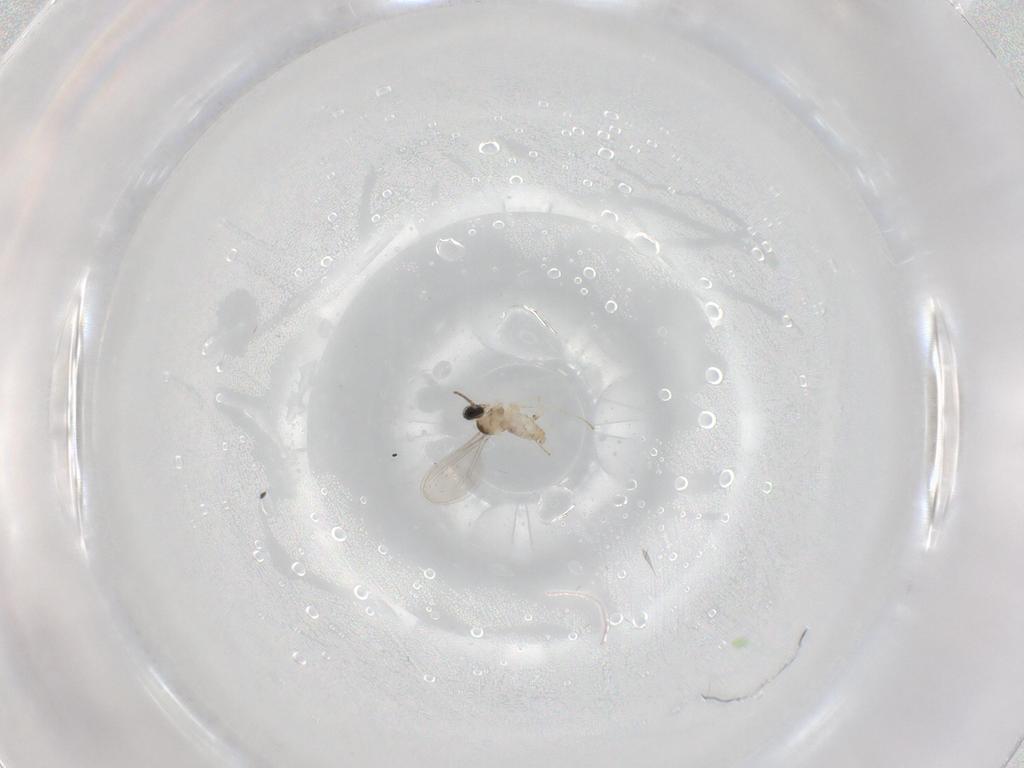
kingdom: Animalia
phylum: Arthropoda
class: Insecta
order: Diptera
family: Cecidomyiidae
